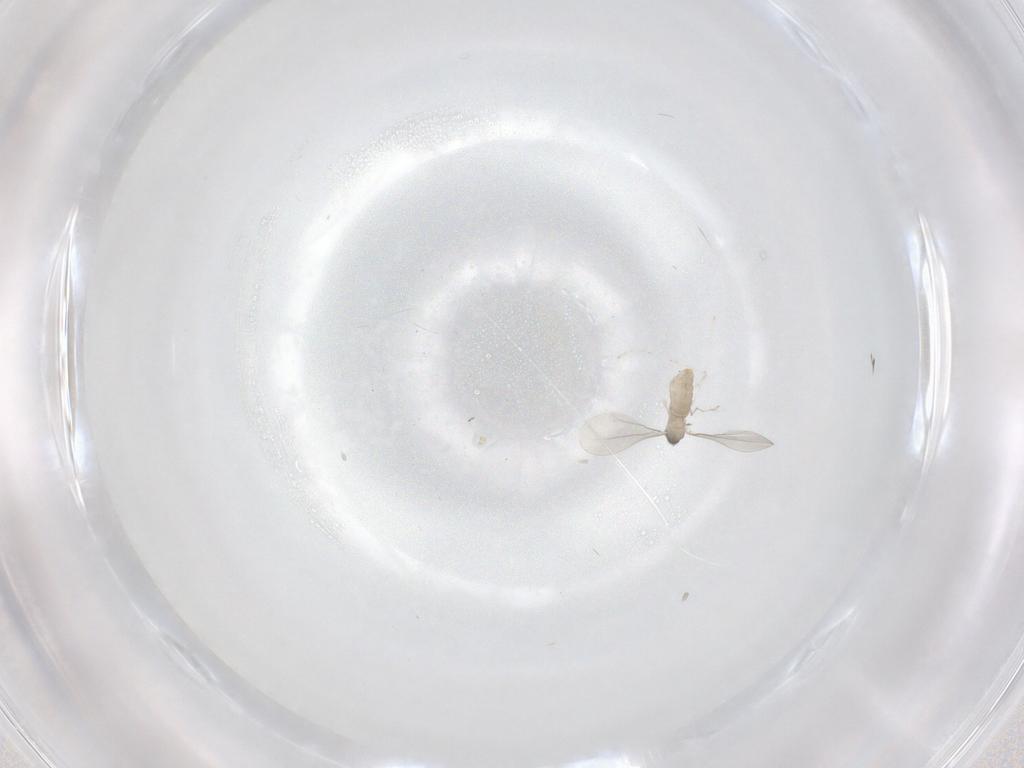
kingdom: Animalia
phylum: Arthropoda
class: Insecta
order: Diptera
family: Cecidomyiidae
